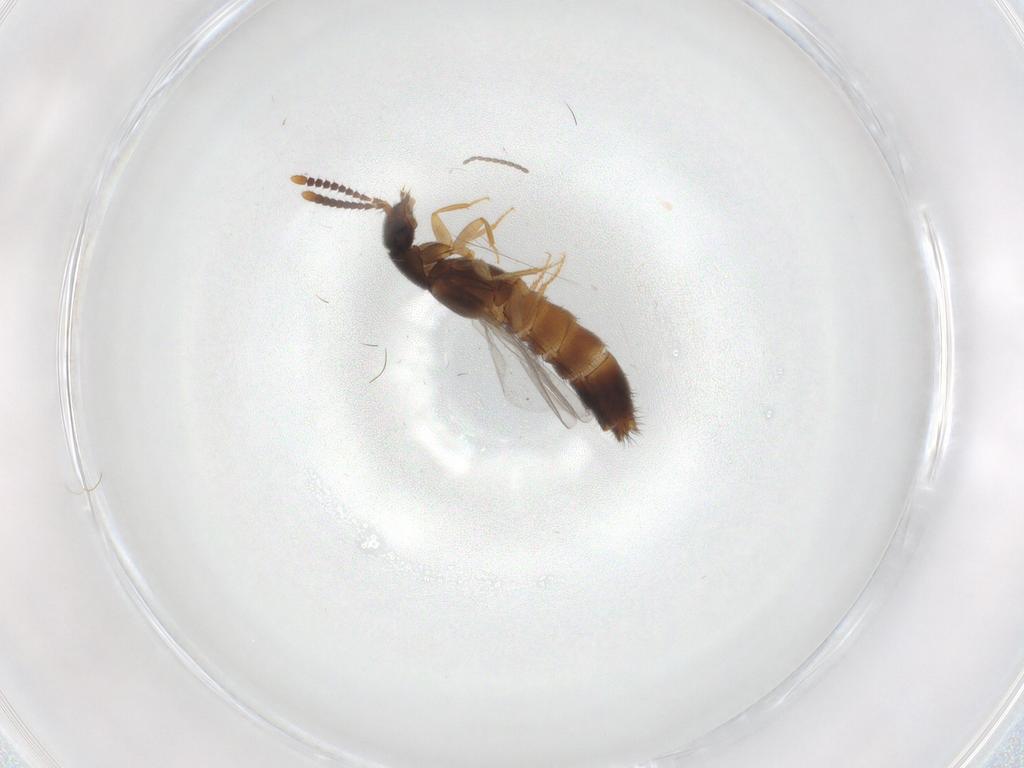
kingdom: Animalia
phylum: Arthropoda
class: Insecta
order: Coleoptera
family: Staphylinidae
